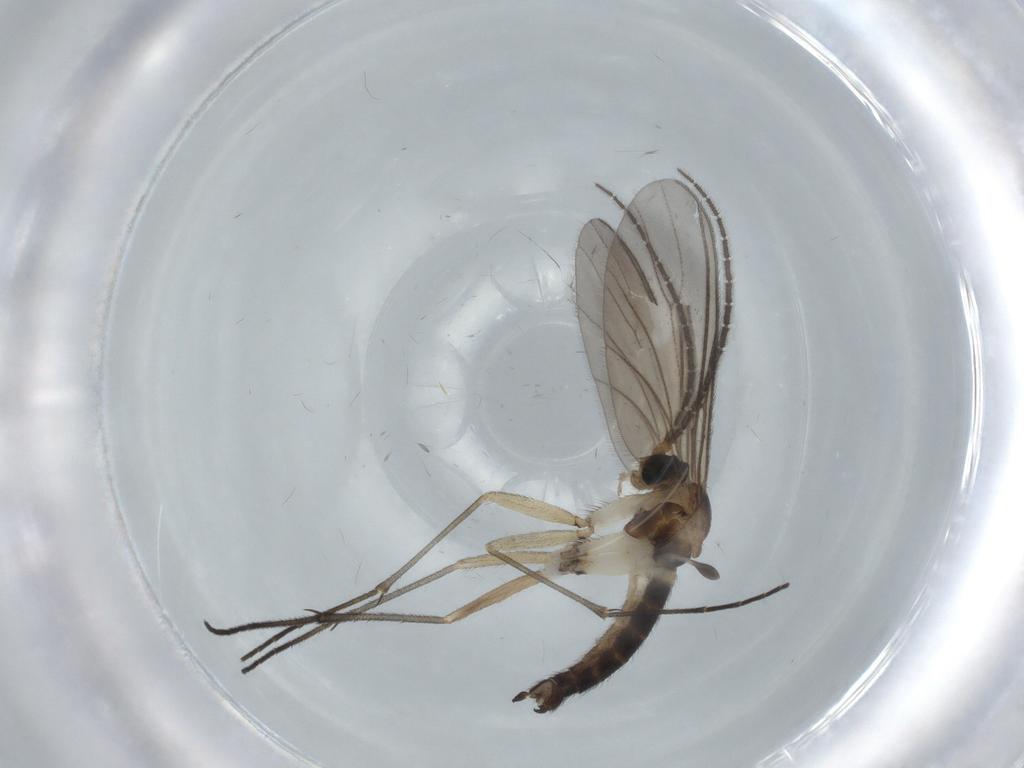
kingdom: Animalia
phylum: Arthropoda
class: Insecta
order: Diptera
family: Sciaridae
